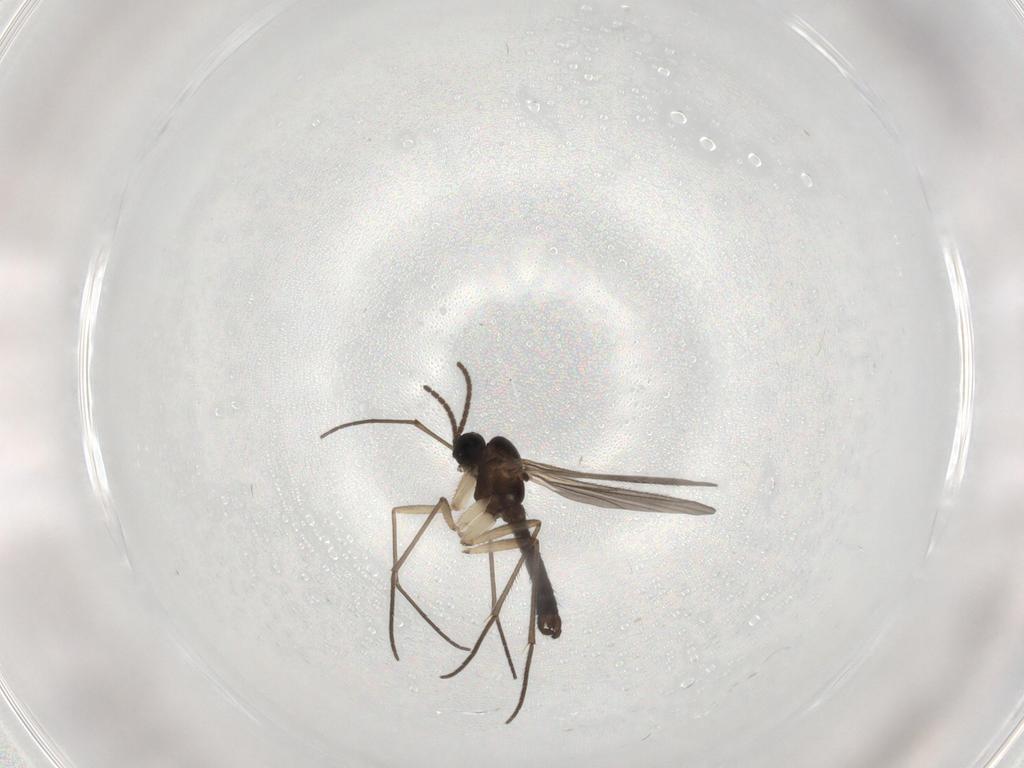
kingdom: Animalia
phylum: Arthropoda
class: Insecta
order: Diptera
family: Sciaridae
